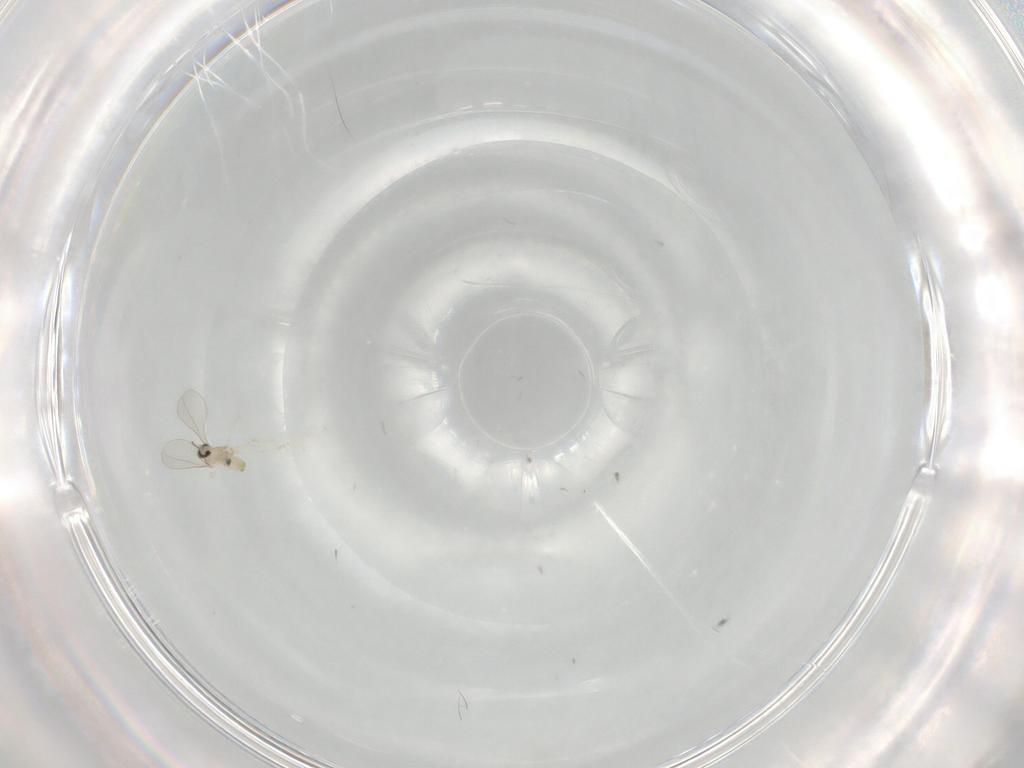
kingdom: Animalia
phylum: Arthropoda
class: Insecta
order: Diptera
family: Cecidomyiidae
